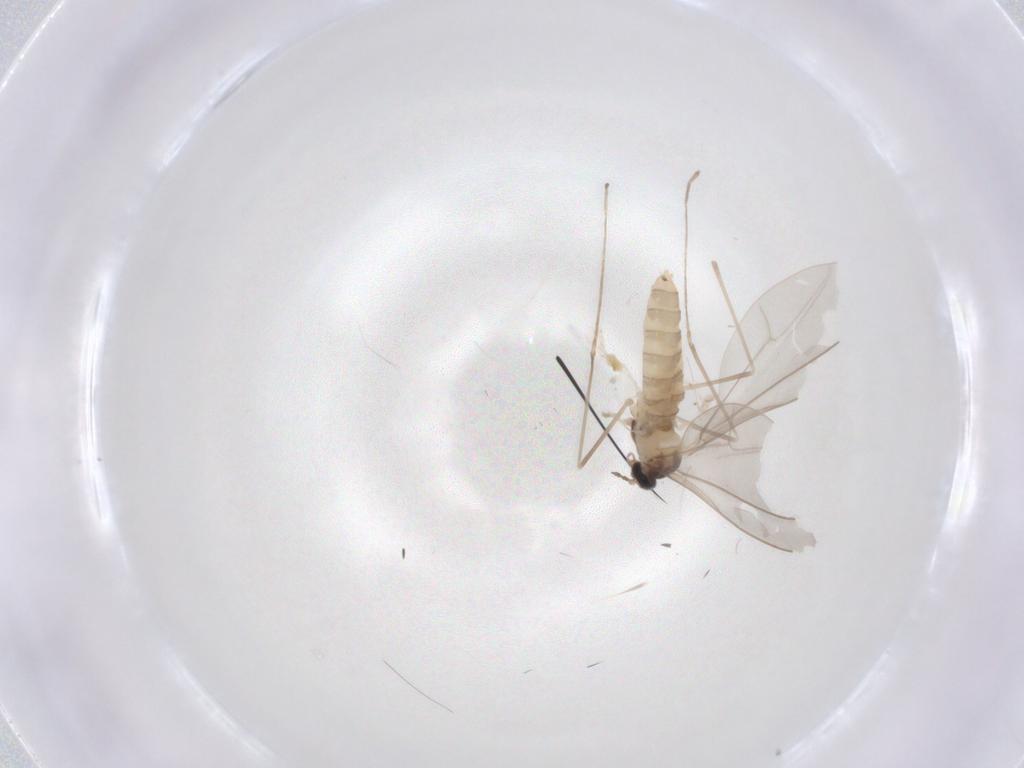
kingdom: Animalia
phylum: Arthropoda
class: Insecta
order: Diptera
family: Cecidomyiidae
